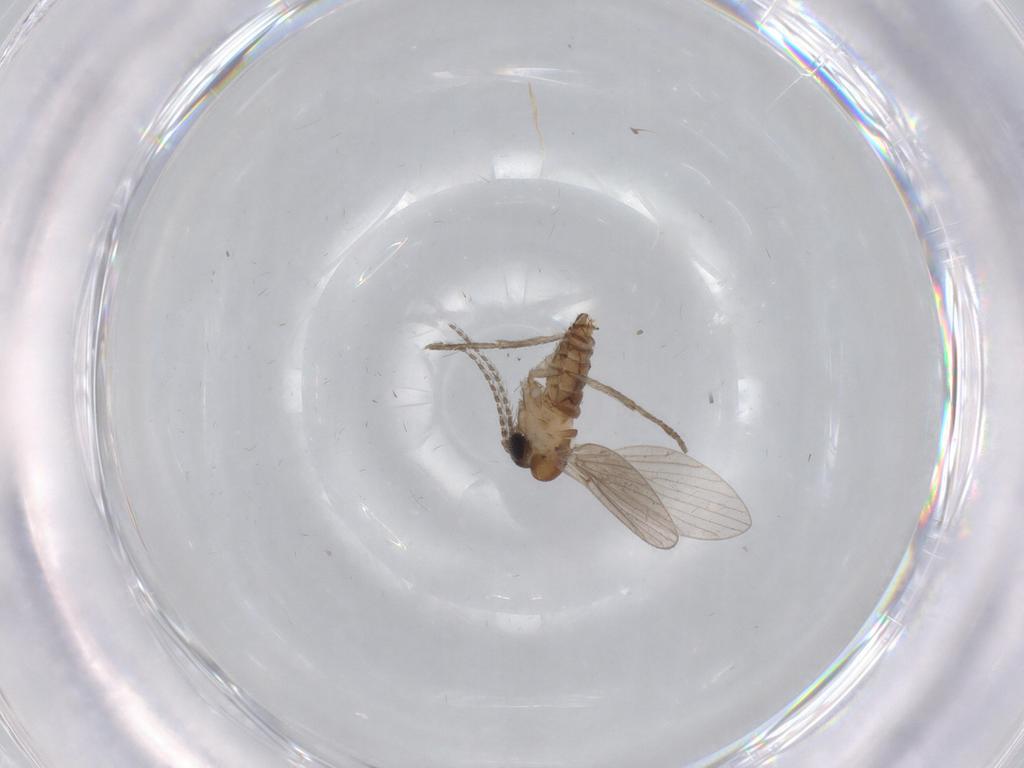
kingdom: Animalia
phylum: Arthropoda
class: Insecta
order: Diptera
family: Psychodidae
